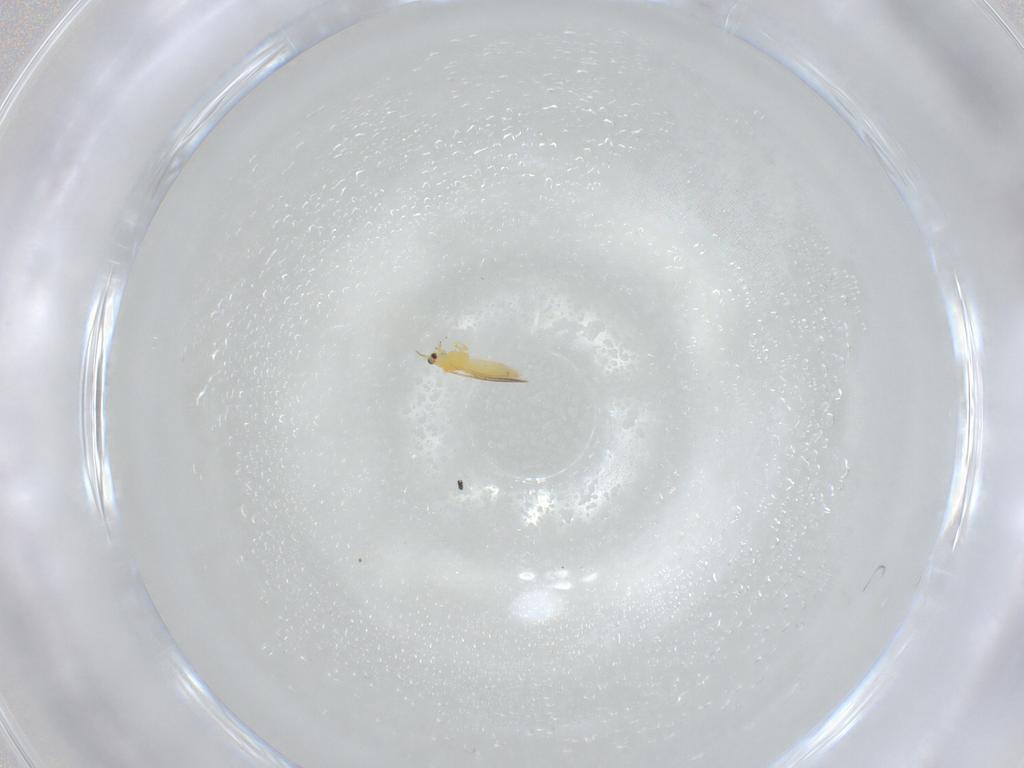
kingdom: Animalia
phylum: Arthropoda
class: Insecta
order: Thysanoptera
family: Thripidae
